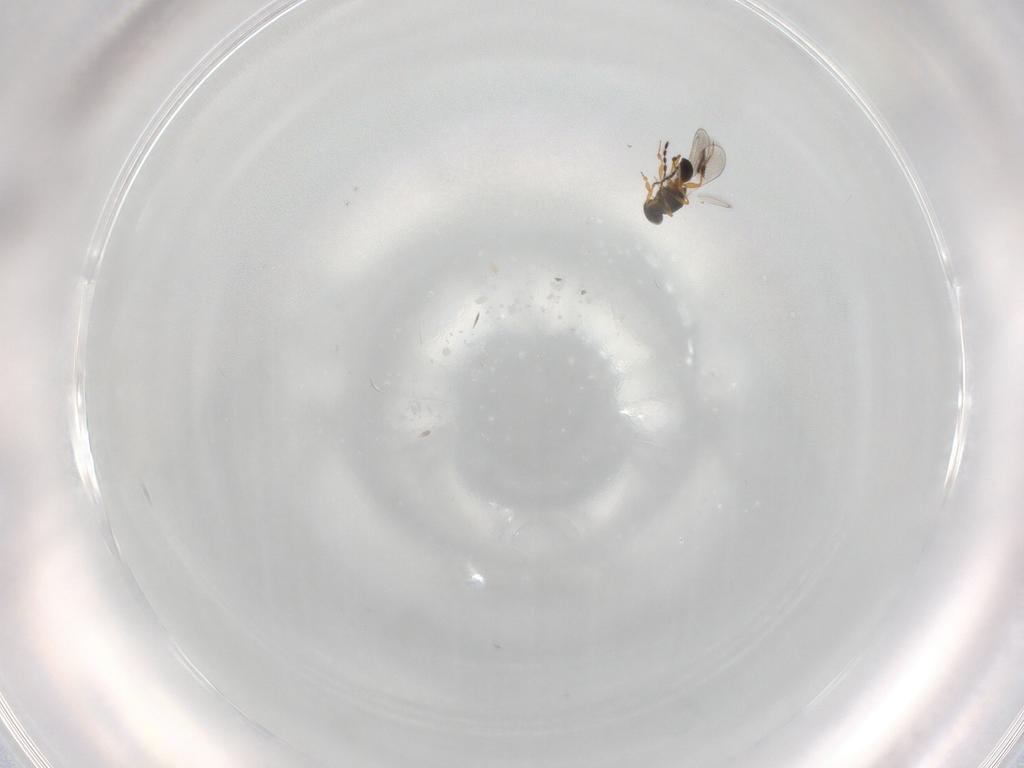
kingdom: Animalia
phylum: Arthropoda
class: Insecta
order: Hymenoptera
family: Platygastridae
